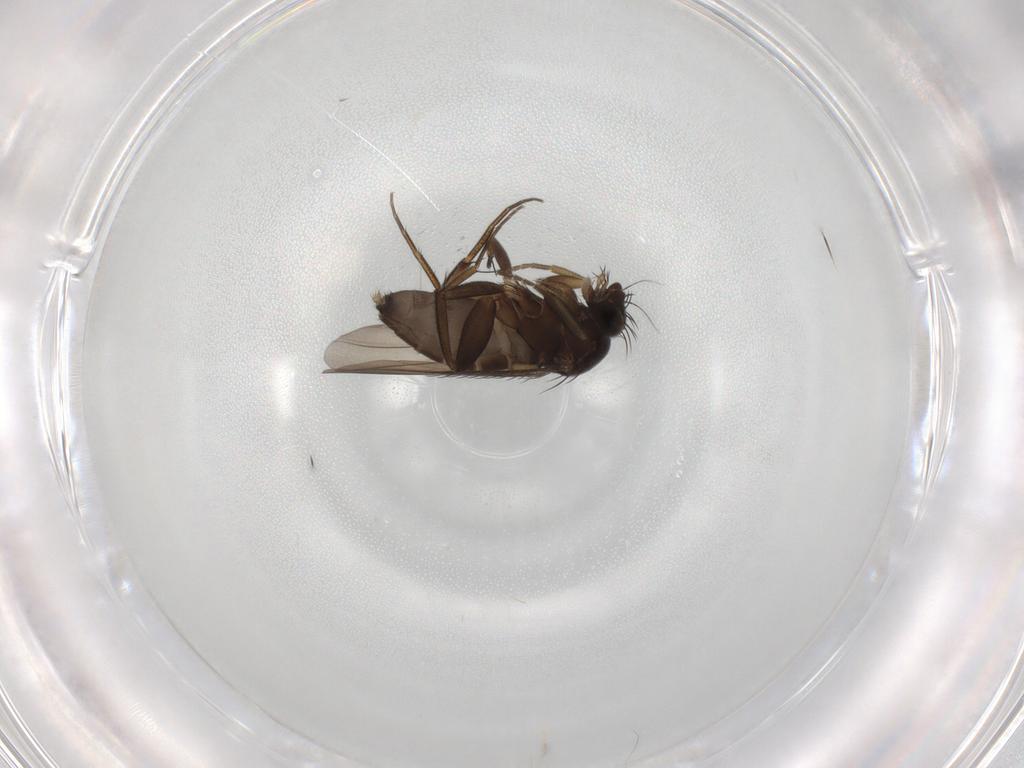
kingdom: Animalia
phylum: Arthropoda
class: Insecta
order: Diptera
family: Phoridae
